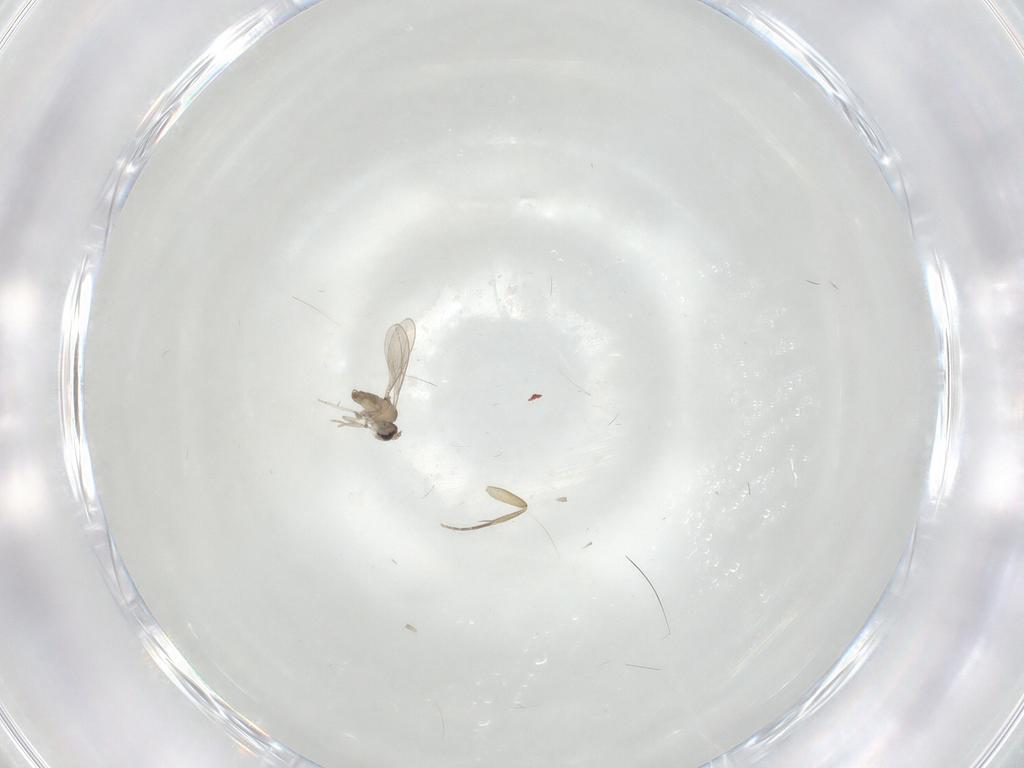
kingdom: Animalia
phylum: Arthropoda
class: Insecta
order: Diptera
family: Cecidomyiidae
